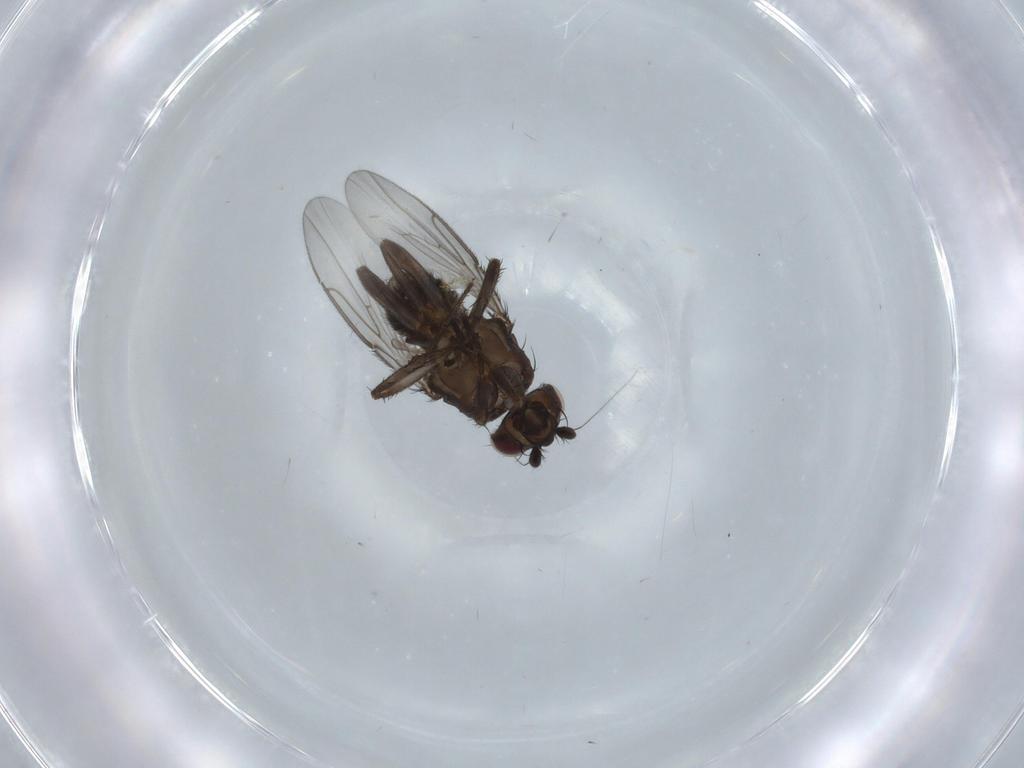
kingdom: Animalia
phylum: Arthropoda
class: Insecta
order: Diptera
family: Sphaeroceridae
